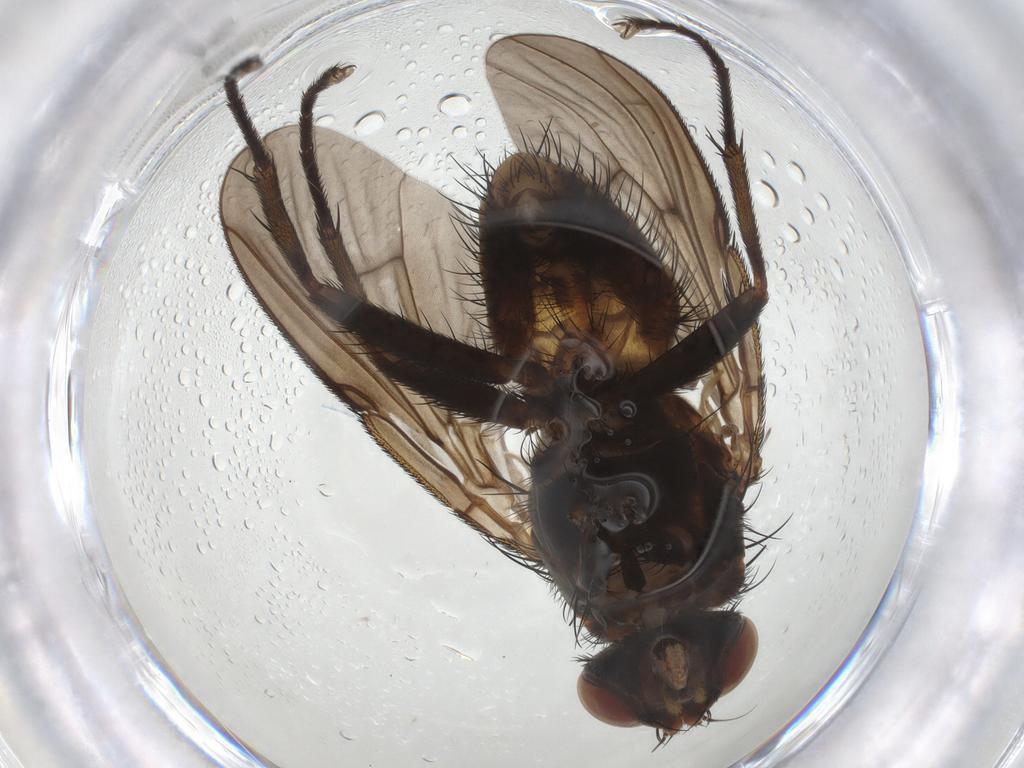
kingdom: Animalia
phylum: Arthropoda
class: Insecta
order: Diptera
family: Muscidae
